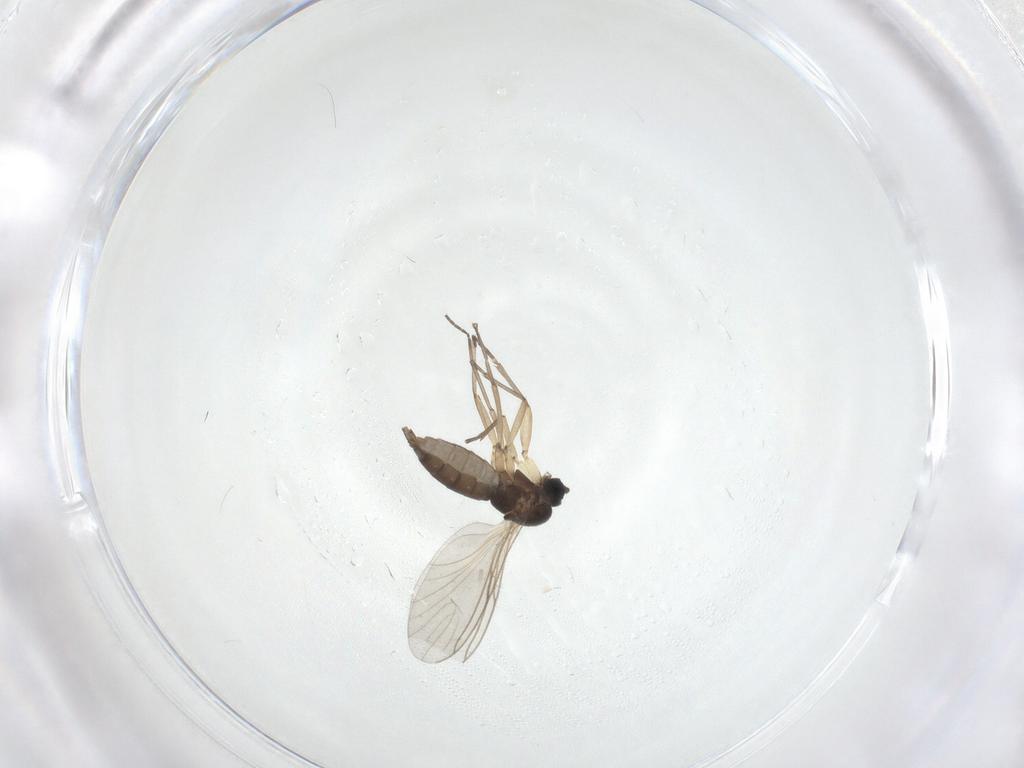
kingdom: Animalia
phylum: Arthropoda
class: Insecta
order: Diptera
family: Sciaridae
